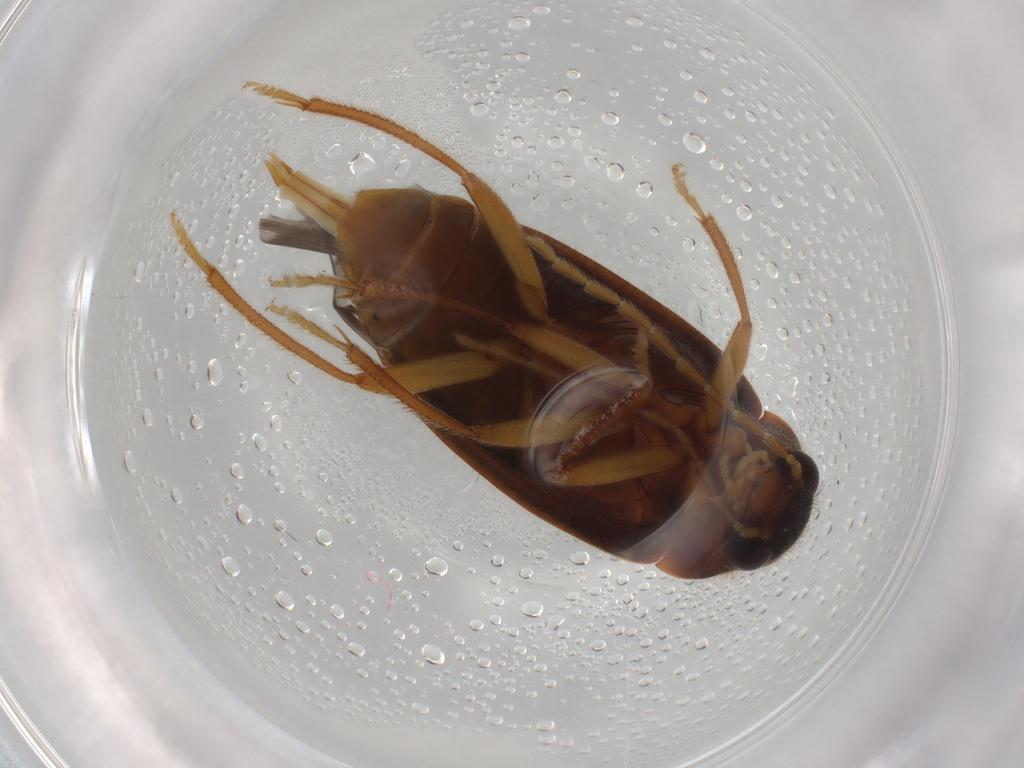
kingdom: Animalia
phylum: Arthropoda
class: Insecta
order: Coleoptera
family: Ptilodactylidae
